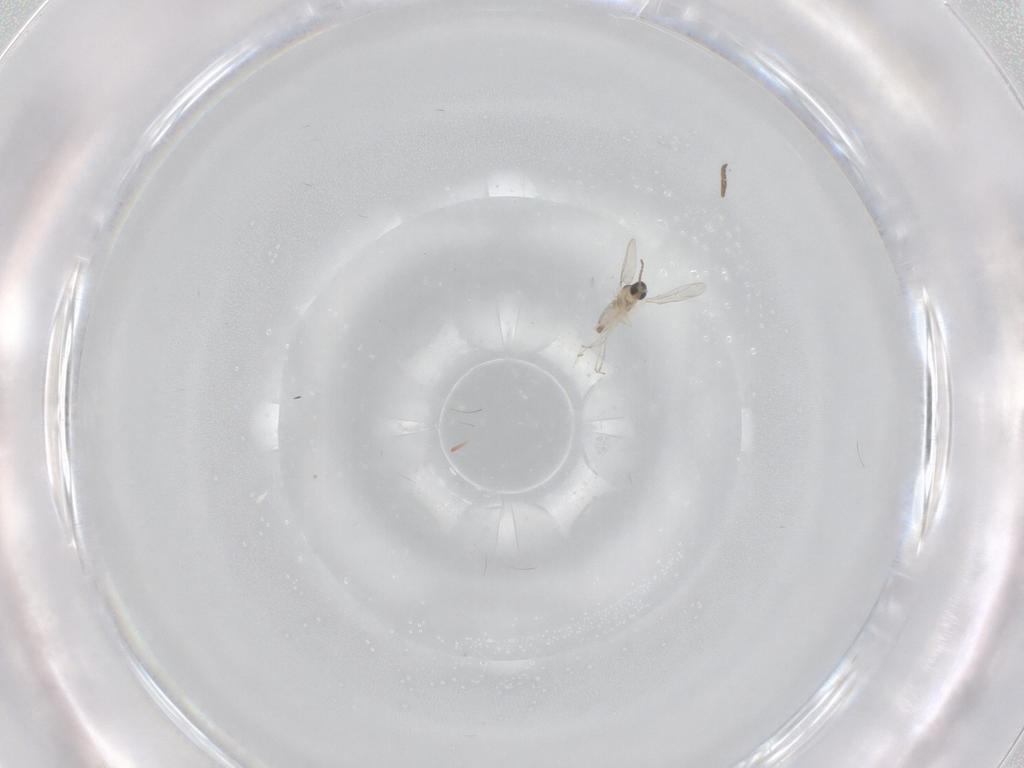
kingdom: Animalia
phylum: Arthropoda
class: Insecta
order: Diptera
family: Cecidomyiidae
